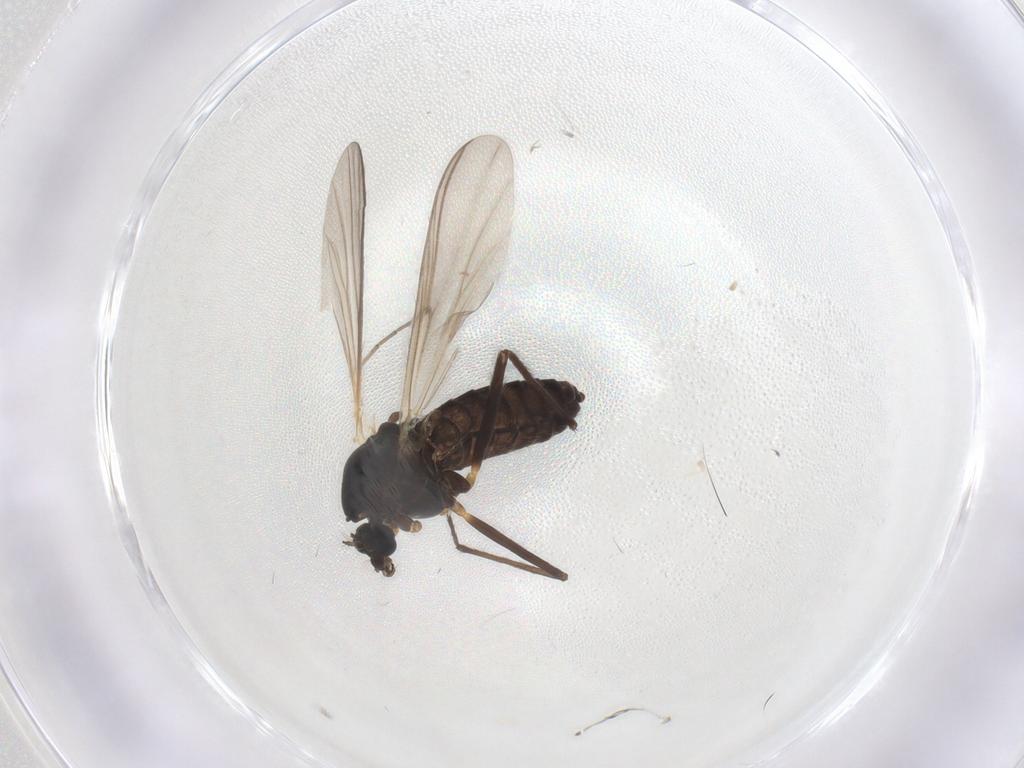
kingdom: Animalia
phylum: Arthropoda
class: Insecta
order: Diptera
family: Chironomidae
